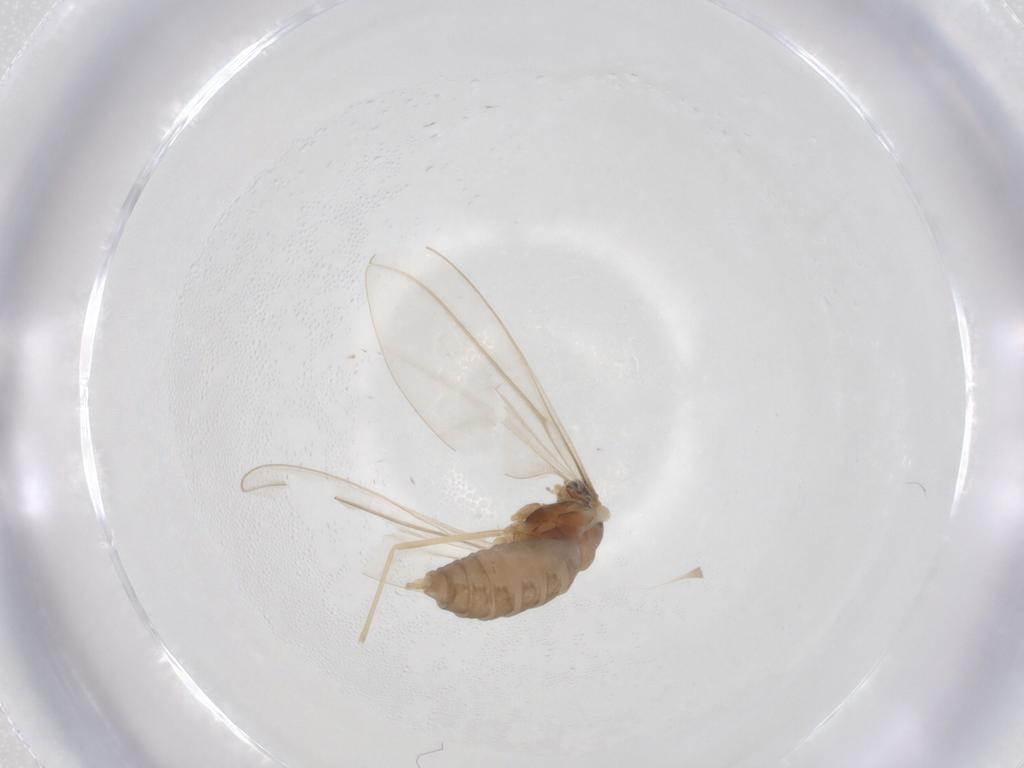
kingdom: Animalia
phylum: Arthropoda
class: Insecta
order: Diptera
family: Cecidomyiidae
